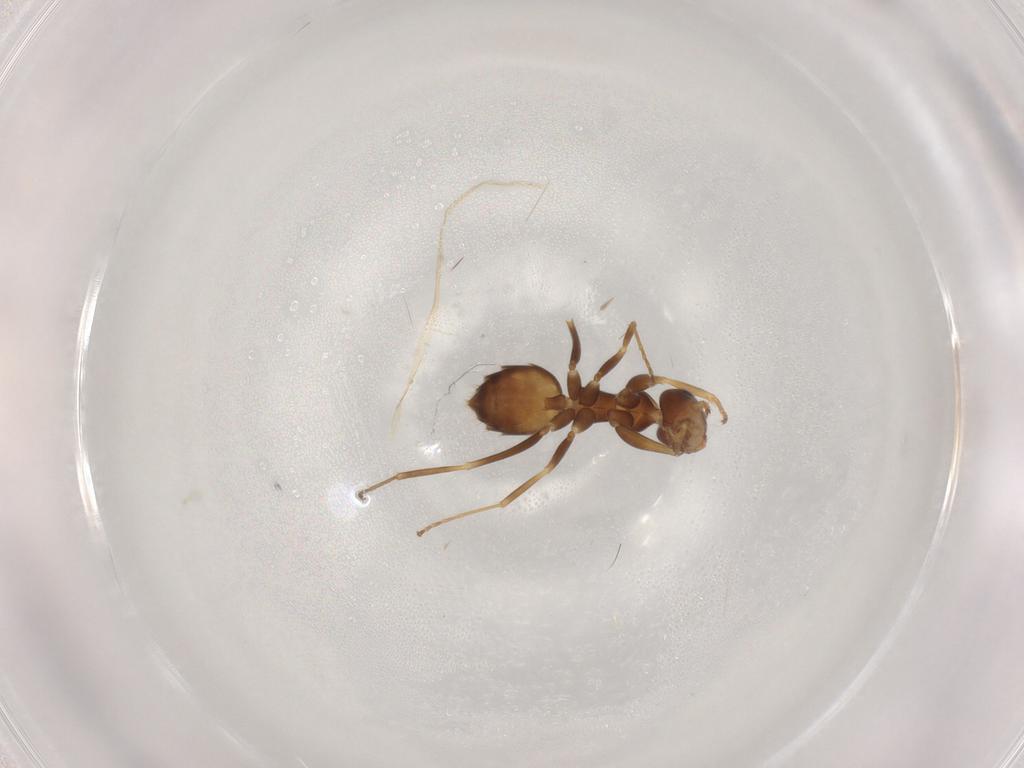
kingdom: Animalia
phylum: Arthropoda
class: Insecta
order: Hymenoptera
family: Formicidae
